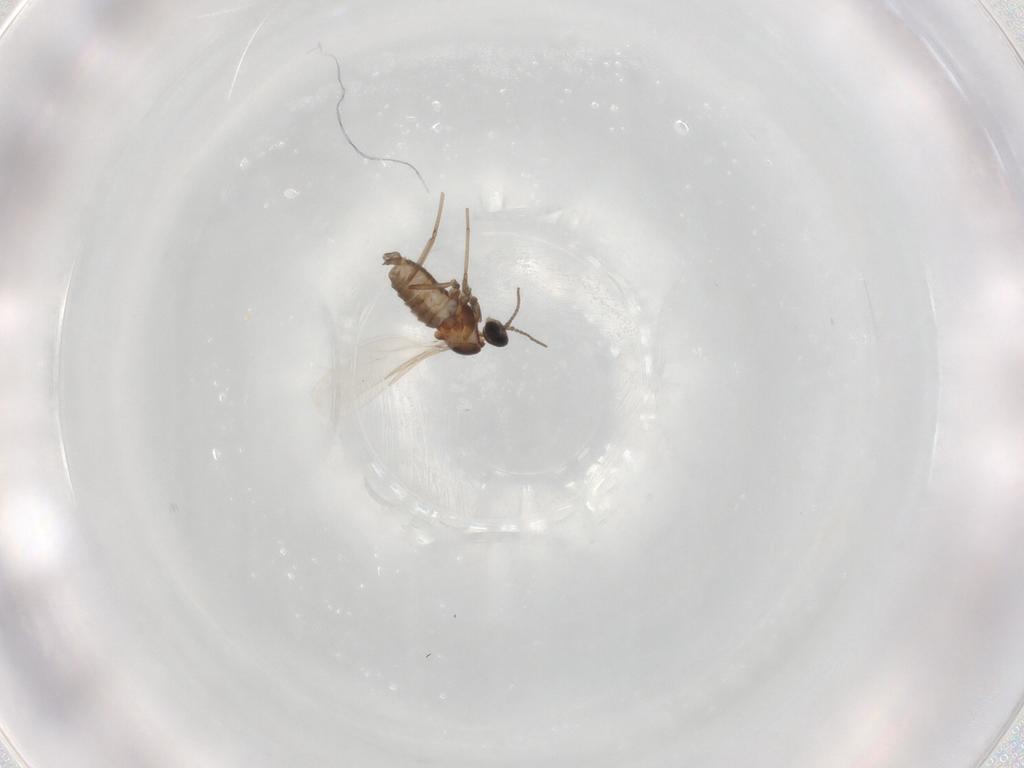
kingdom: Animalia
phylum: Arthropoda
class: Insecta
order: Diptera
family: Cecidomyiidae
